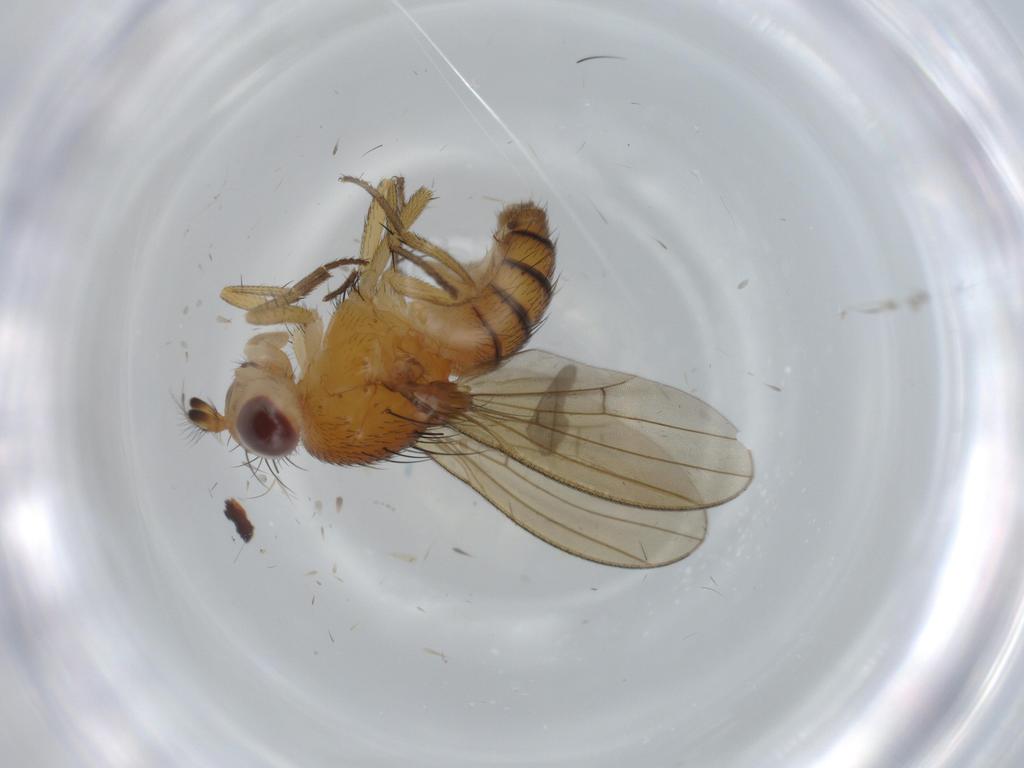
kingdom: Animalia
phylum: Arthropoda
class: Insecta
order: Diptera
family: Lauxaniidae
